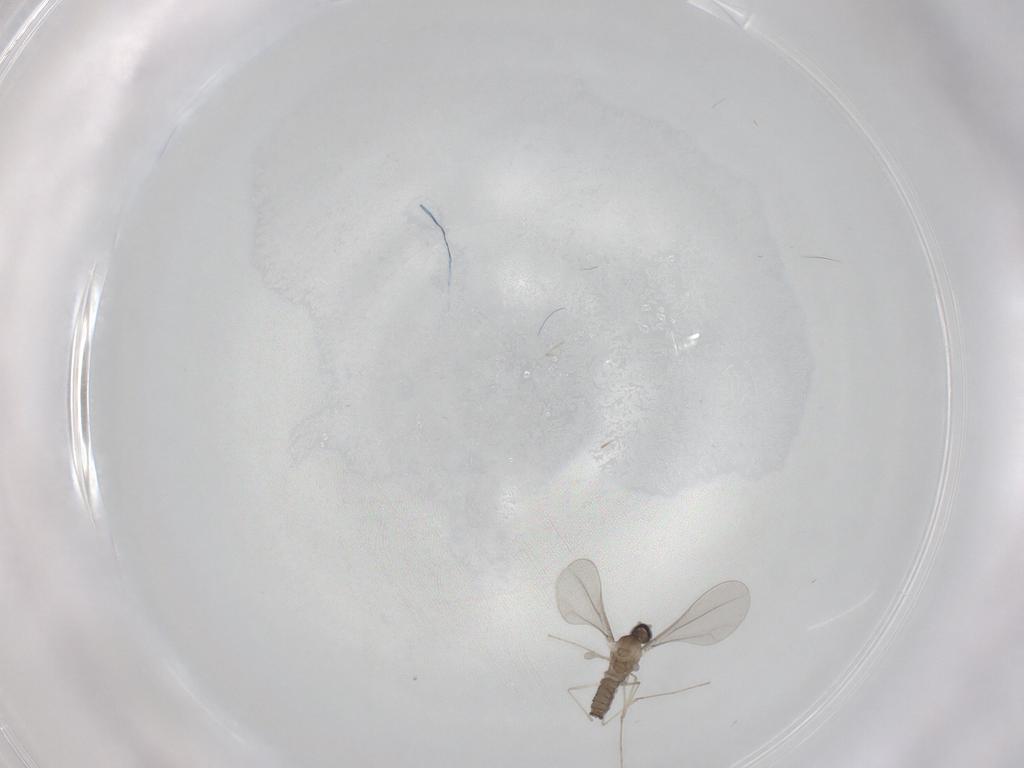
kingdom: Animalia
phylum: Arthropoda
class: Insecta
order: Diptera
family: Cecidomyiidae
